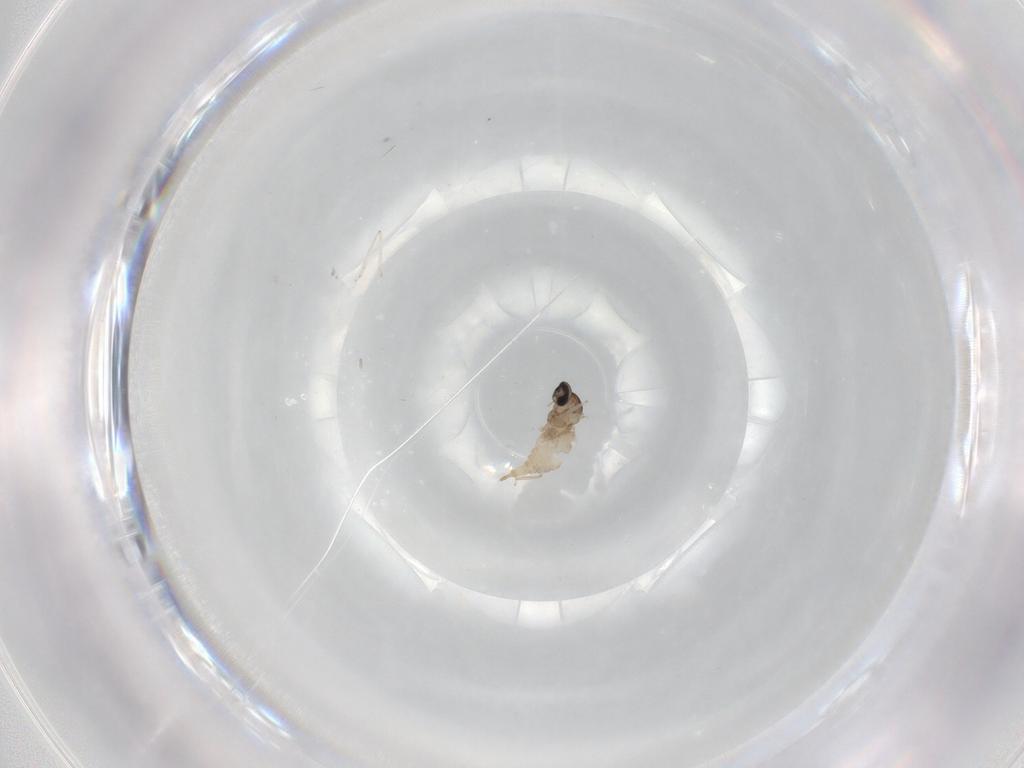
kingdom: Animalia
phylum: Arthropoda
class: Insecta
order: Diptera
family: Cecidomyiidae
